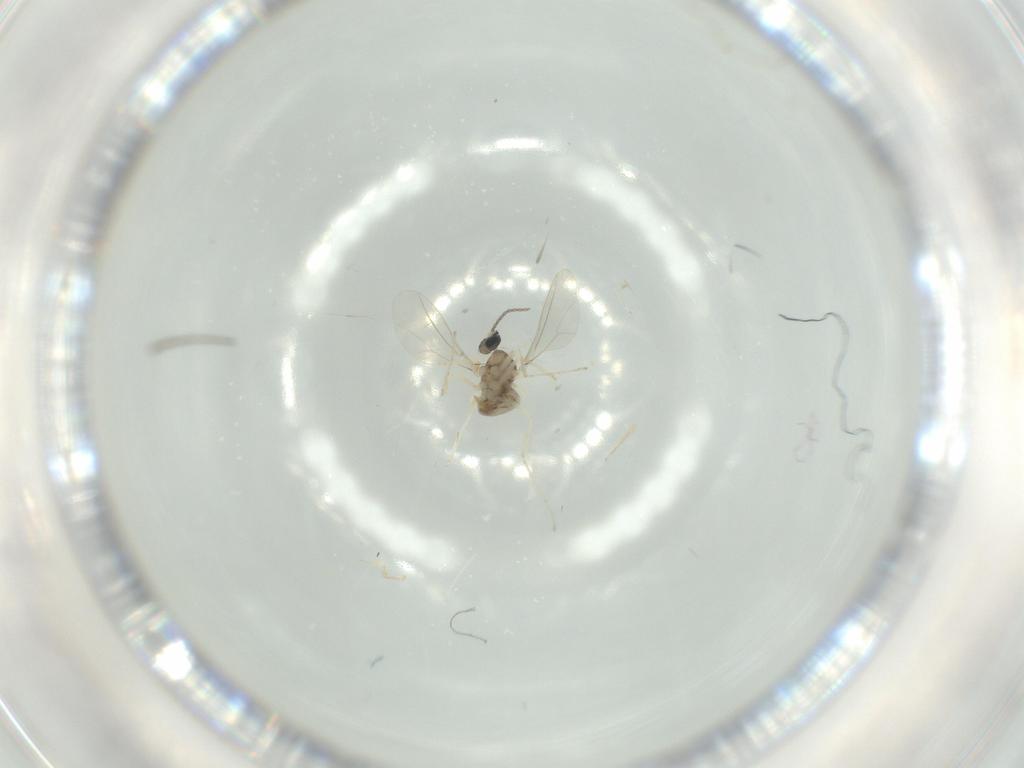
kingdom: Animalia
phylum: Arthropoda
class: Insecta
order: Diptera
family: Cecidomyiidae
